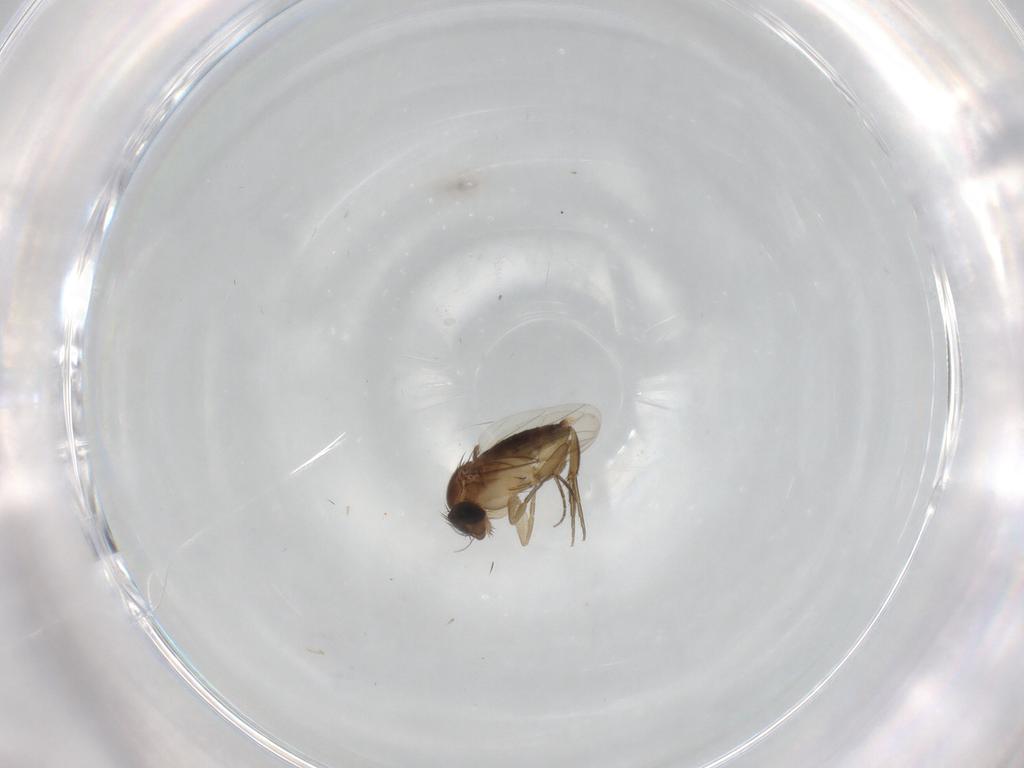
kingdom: Animalia
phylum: Arthropoda
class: Insecta
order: Diptera
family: Phoridae
